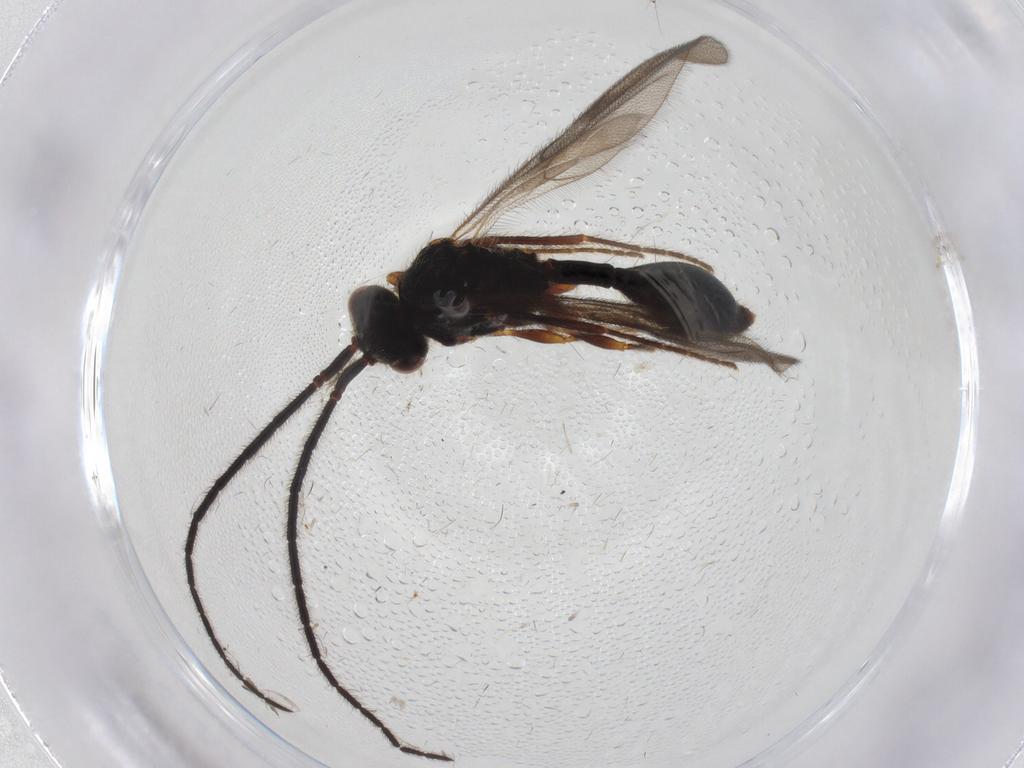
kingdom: Animalia
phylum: Arthropoda
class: Insecta
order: Hymenoptera
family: Diapriidae
